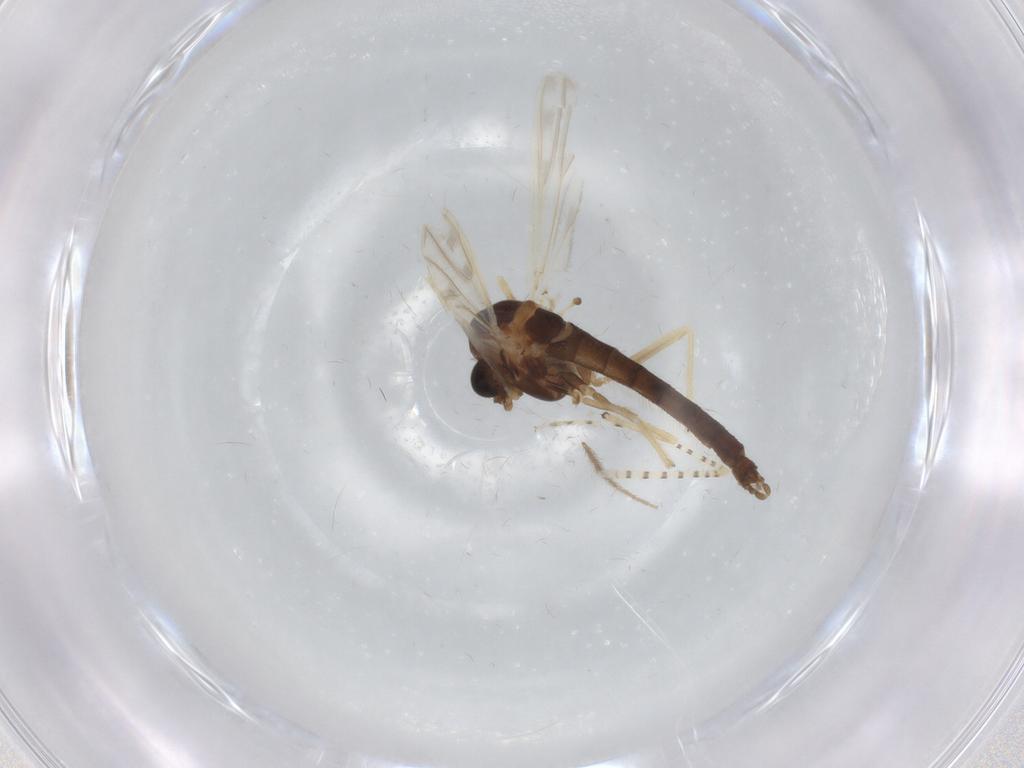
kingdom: Animalia
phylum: Arthropoda
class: Insecta
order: Diptera
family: Chironomidae
